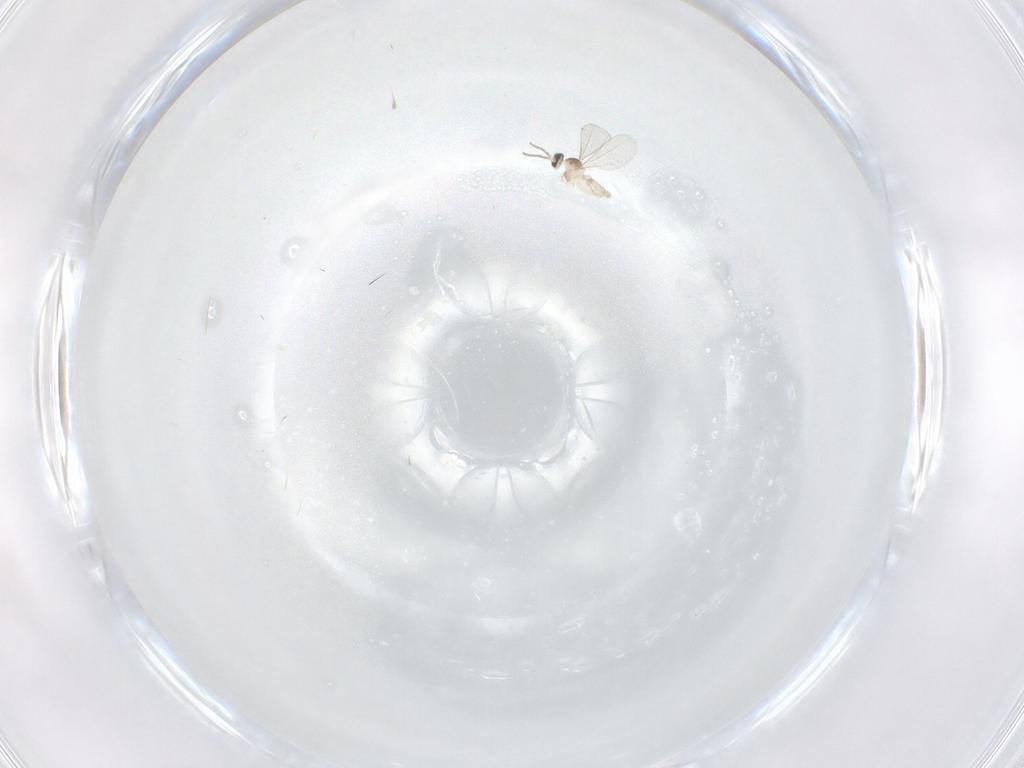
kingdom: Animalia
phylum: Arthropoda
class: Insecta
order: Diptera
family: Cecidomyiidae
